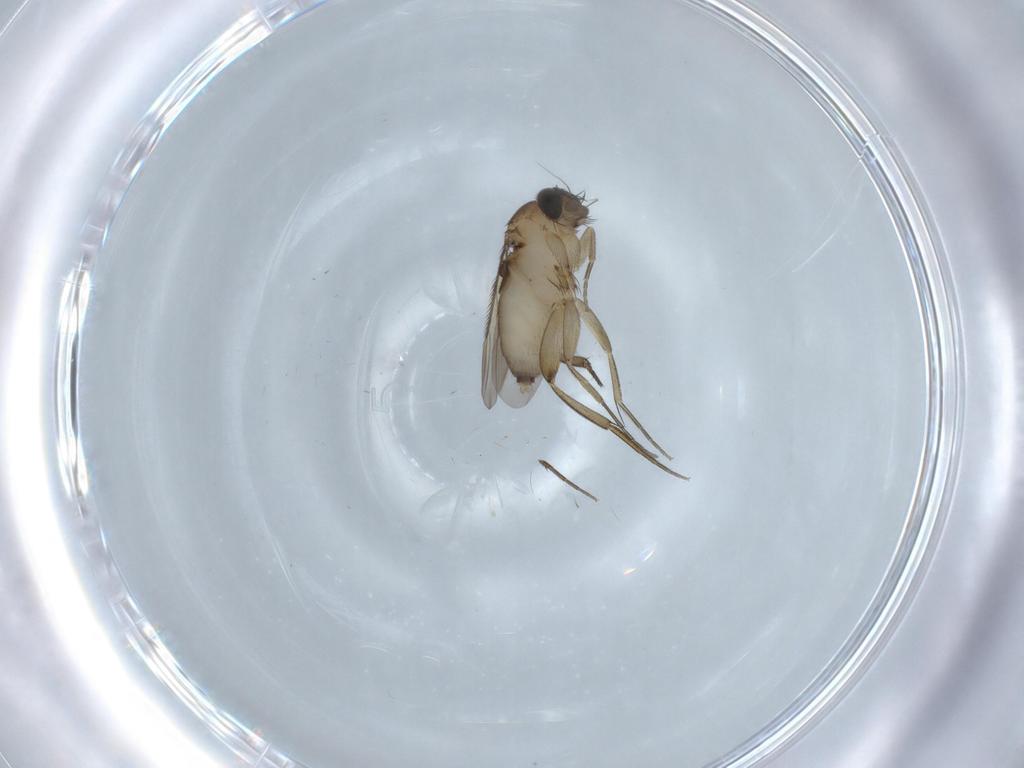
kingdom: Animalia
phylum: Arthropoda
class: Insecta
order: Diptera
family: Phoridae
